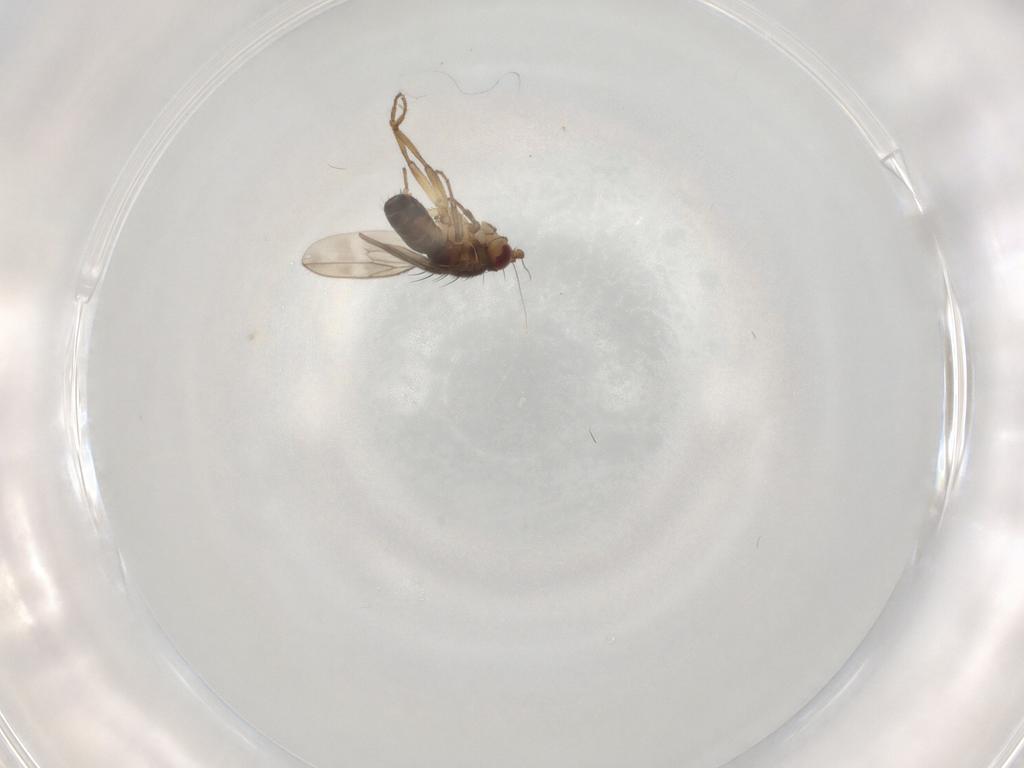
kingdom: Animalia
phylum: Arthropoda
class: Insecta
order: Diptera
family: Sphaeroceridae
